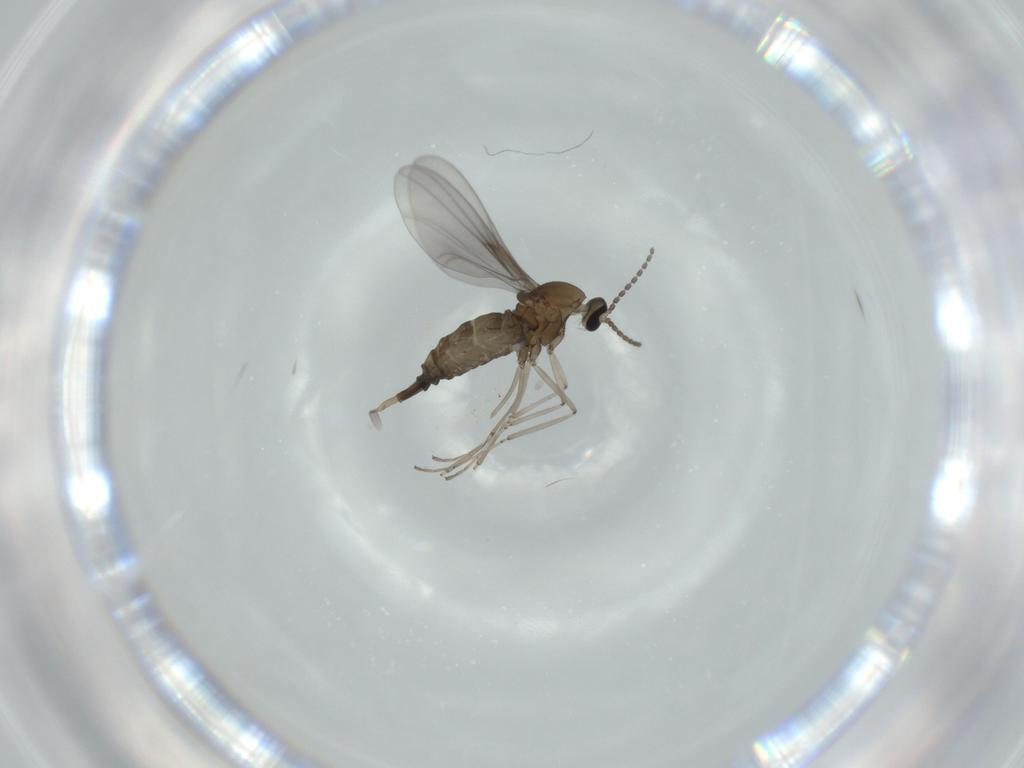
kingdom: Animalia
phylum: Arthropoda
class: Insecta
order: Diptera
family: Cecidomyiidae
